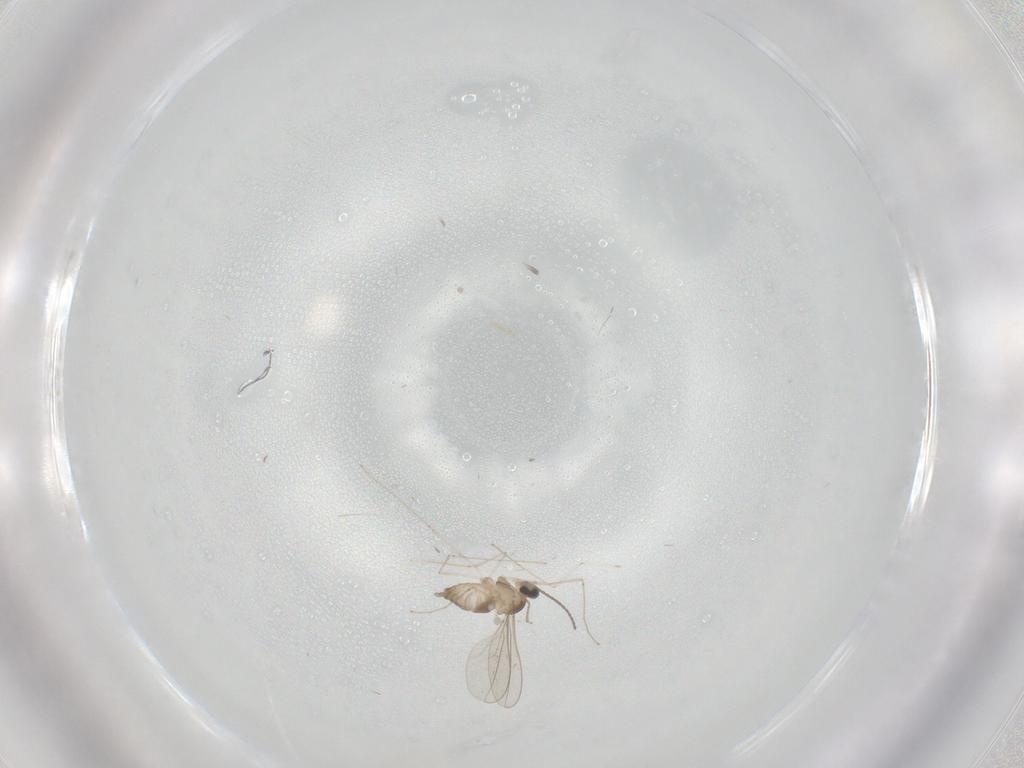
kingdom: Animalia
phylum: Arthropoda
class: Insecta
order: Diptera
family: Cecidomyiidae
